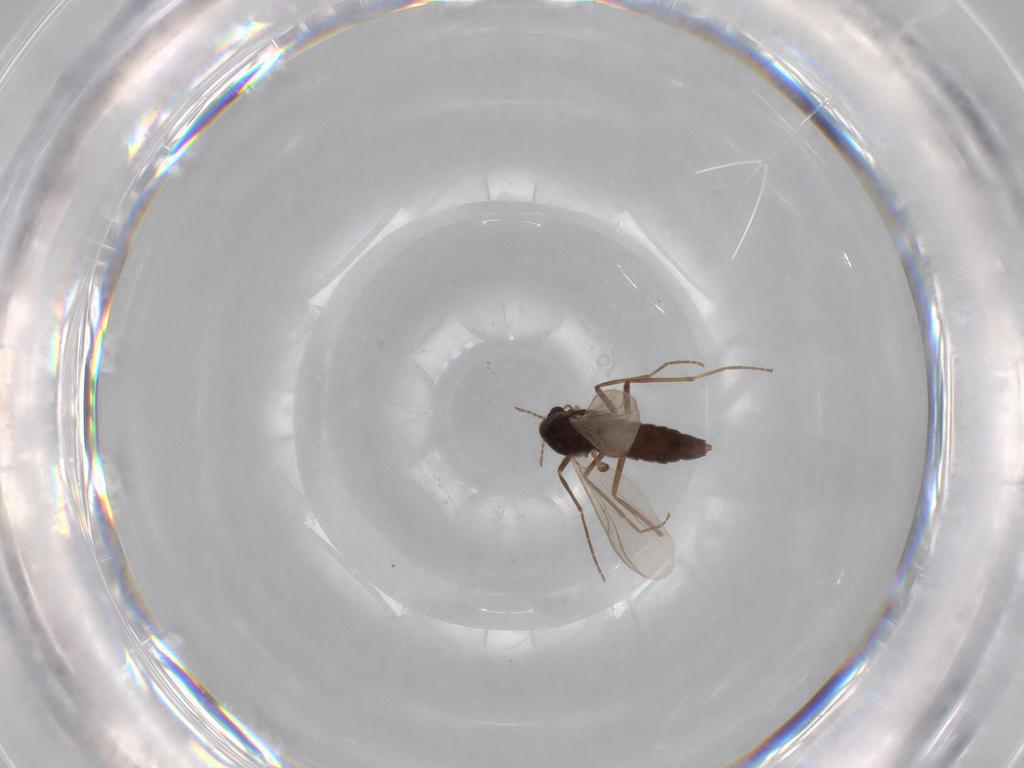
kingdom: Animalia
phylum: Arthropoda
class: Insecta
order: Diptera
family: Chironomidae
